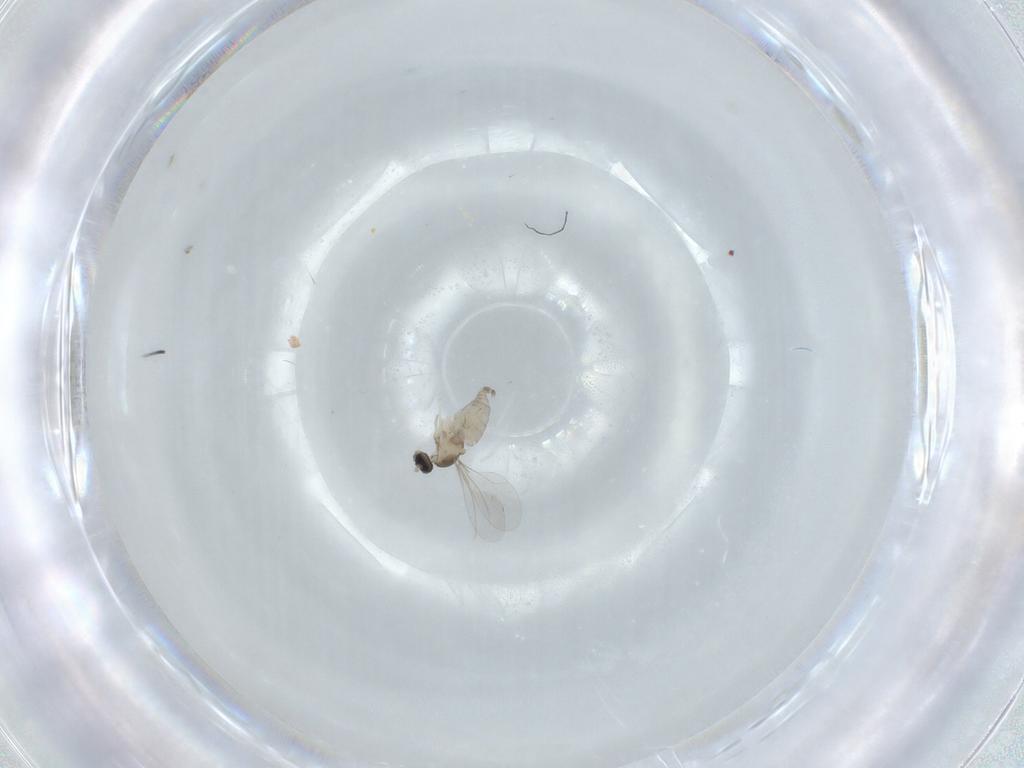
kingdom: Animalia
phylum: Arthropoda
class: Insecta
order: Diptera
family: Cecidomyiidae
